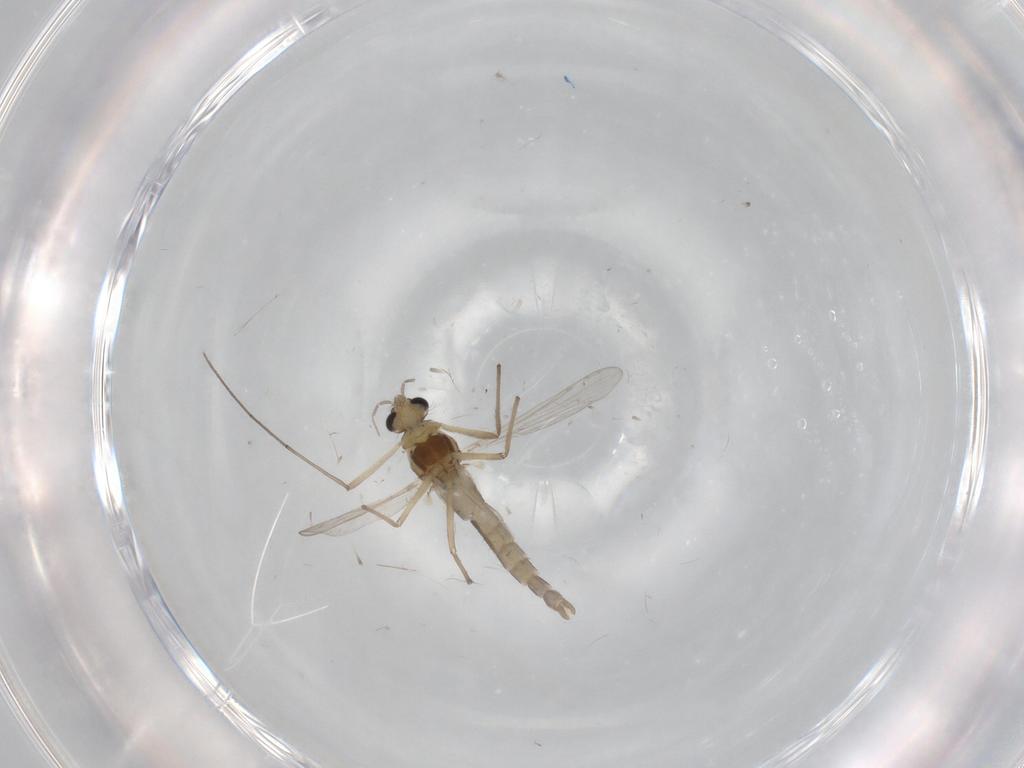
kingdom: Animalia
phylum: Arthropoda
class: Insecta
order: Diptera
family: Chironomidae
